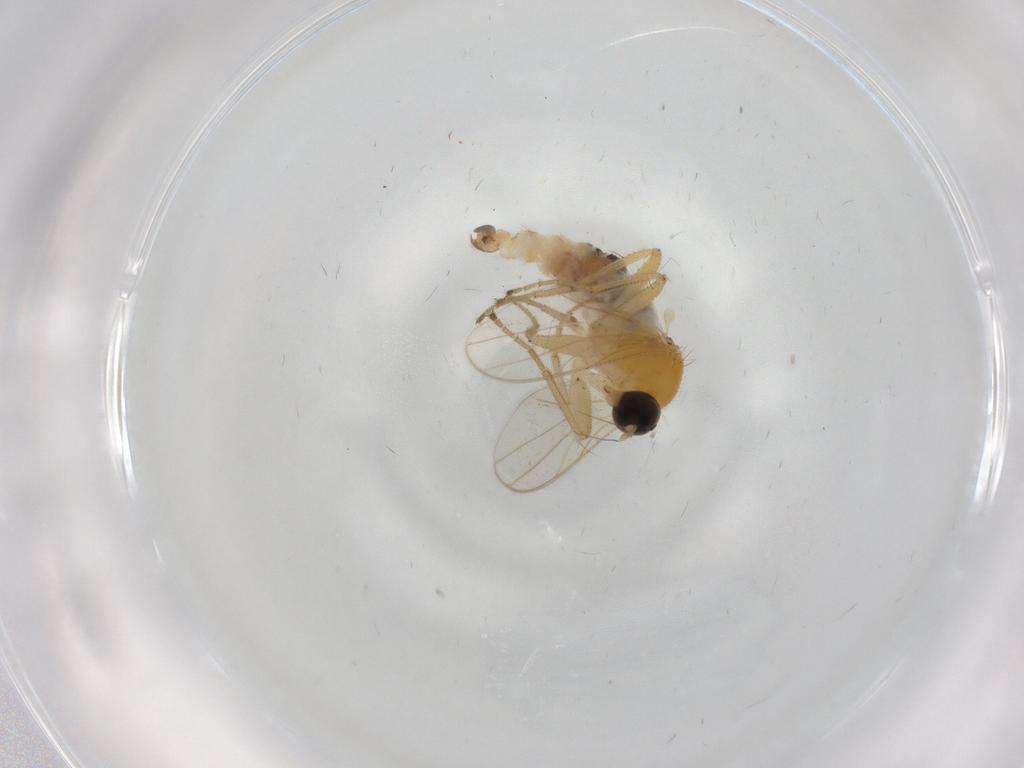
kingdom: Animalia
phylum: Arthropoda
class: Insecta
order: Diptera
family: Hybotidae
